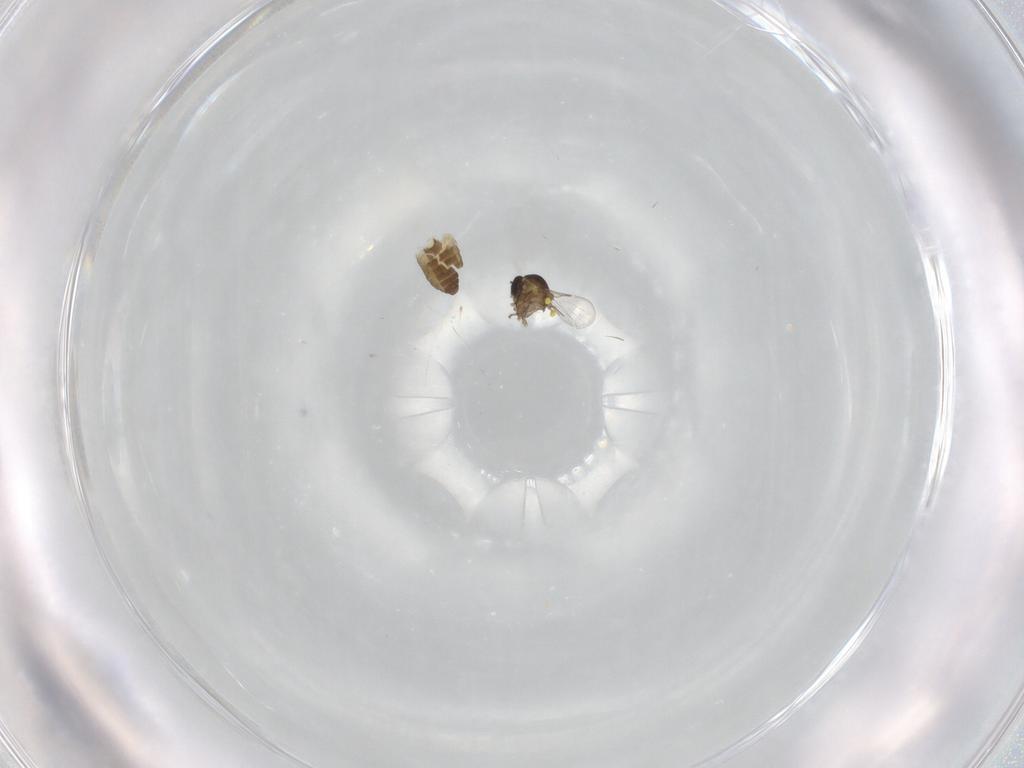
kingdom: Animalia
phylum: Arthropoda
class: Insecta
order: Diptera
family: Ceratopogonidae
